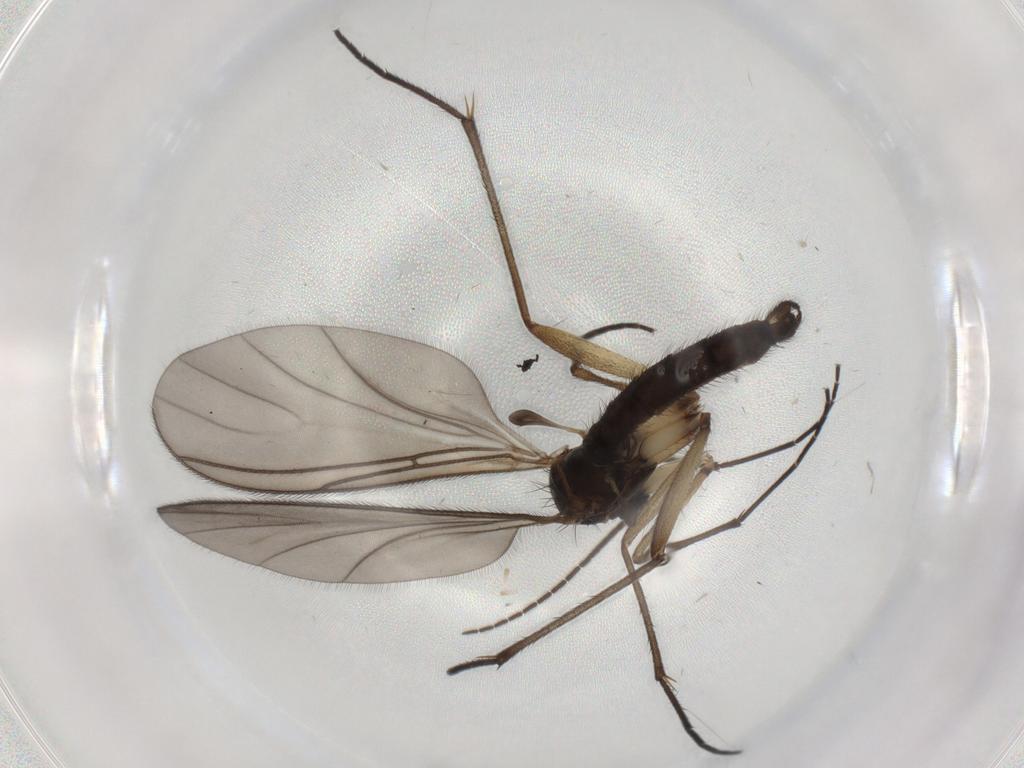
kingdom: Animalia
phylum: Arthropoda
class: Insecta
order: Diptera
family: Sciaridae
